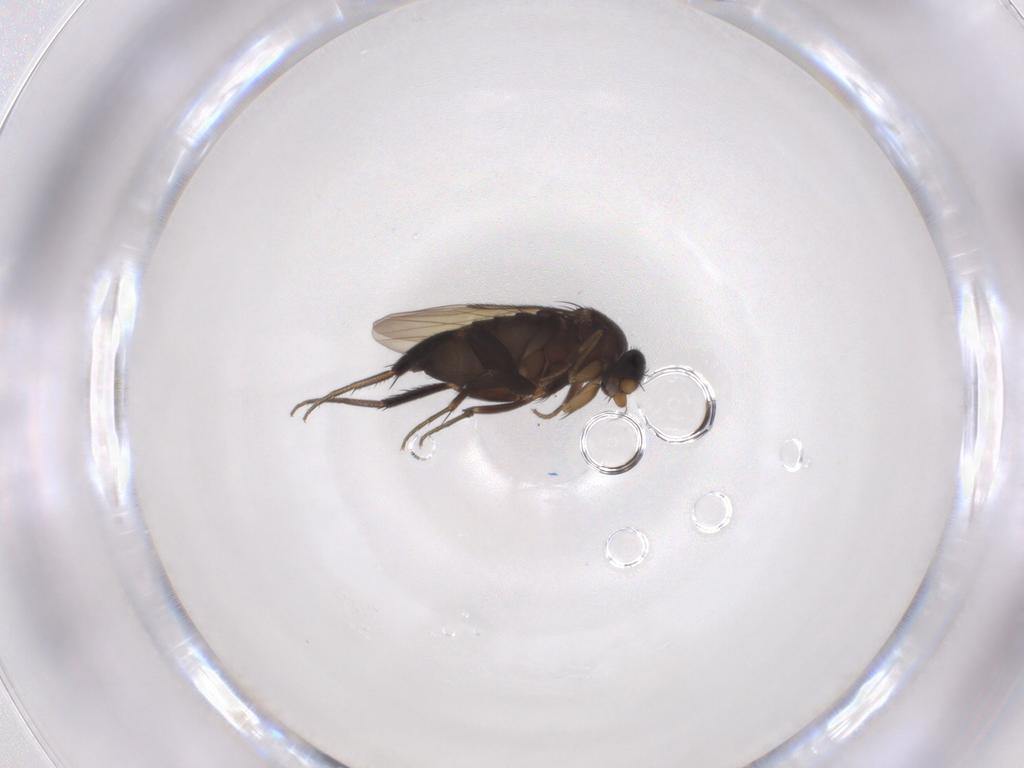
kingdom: Animalia
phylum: Arthropoda
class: Insecta
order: Diptera
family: Phoridae
